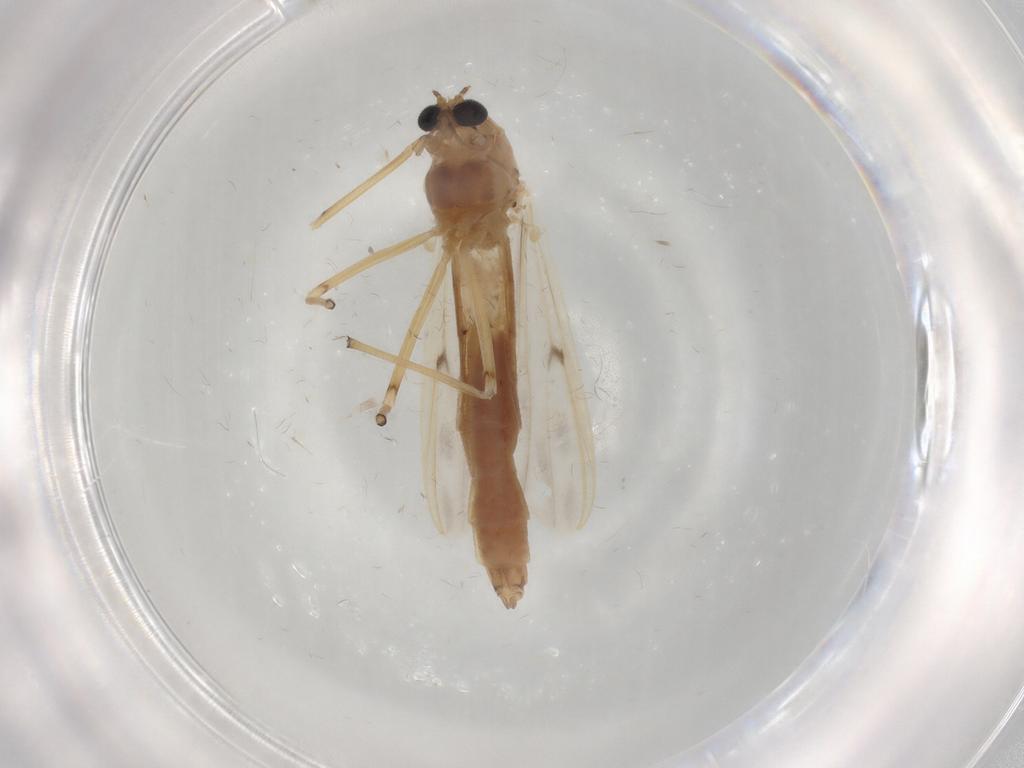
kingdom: Animalia
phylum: Arthropoda
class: Insecta
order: Diptera
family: Chironomidae
